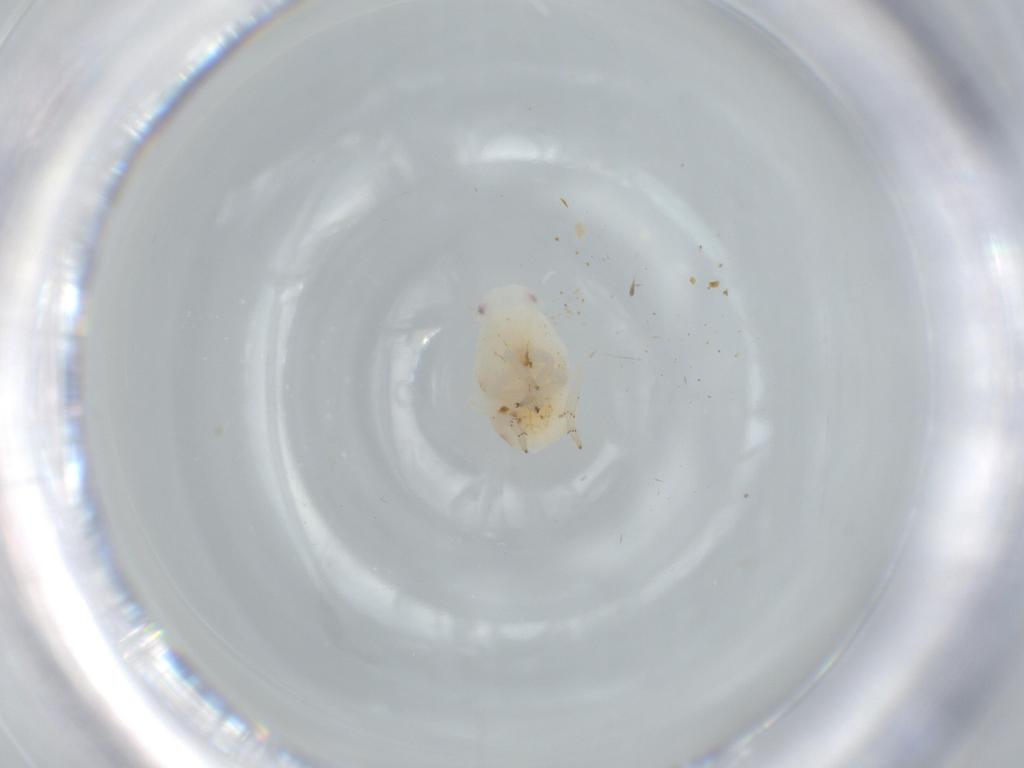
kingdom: Animalia
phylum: Arthropoda
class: Insecta
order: Hemiptera
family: Flatidae
